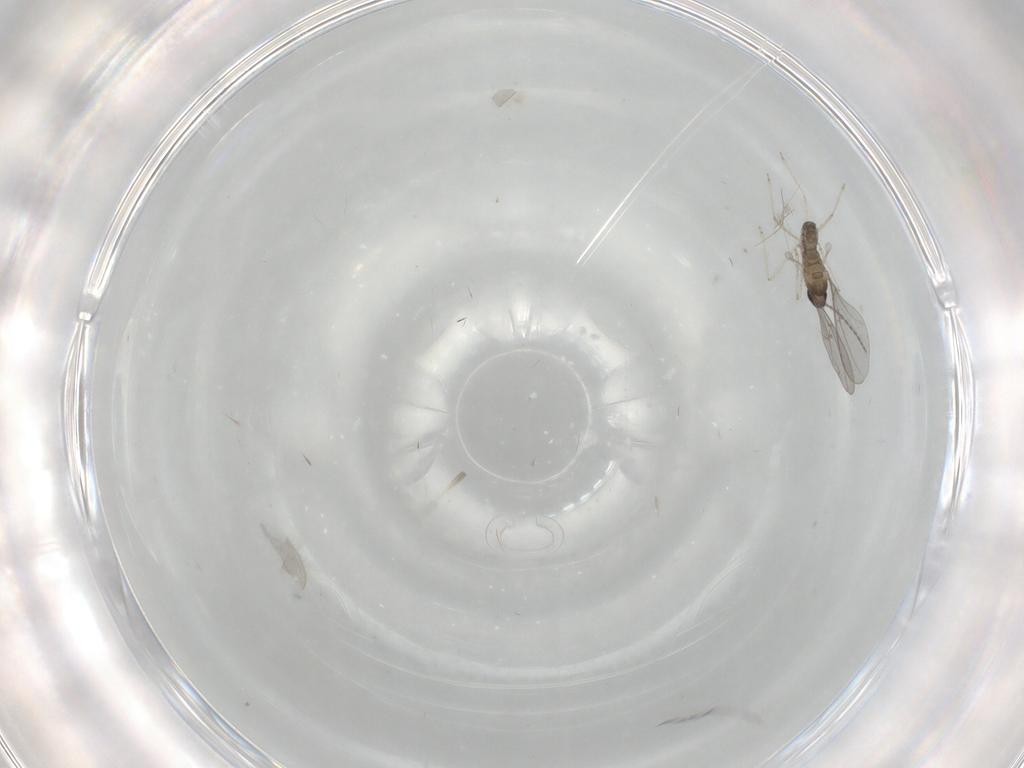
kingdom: Animalia
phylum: Arthropoda
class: Insecta
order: Diptera
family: Cecidomyiidae
